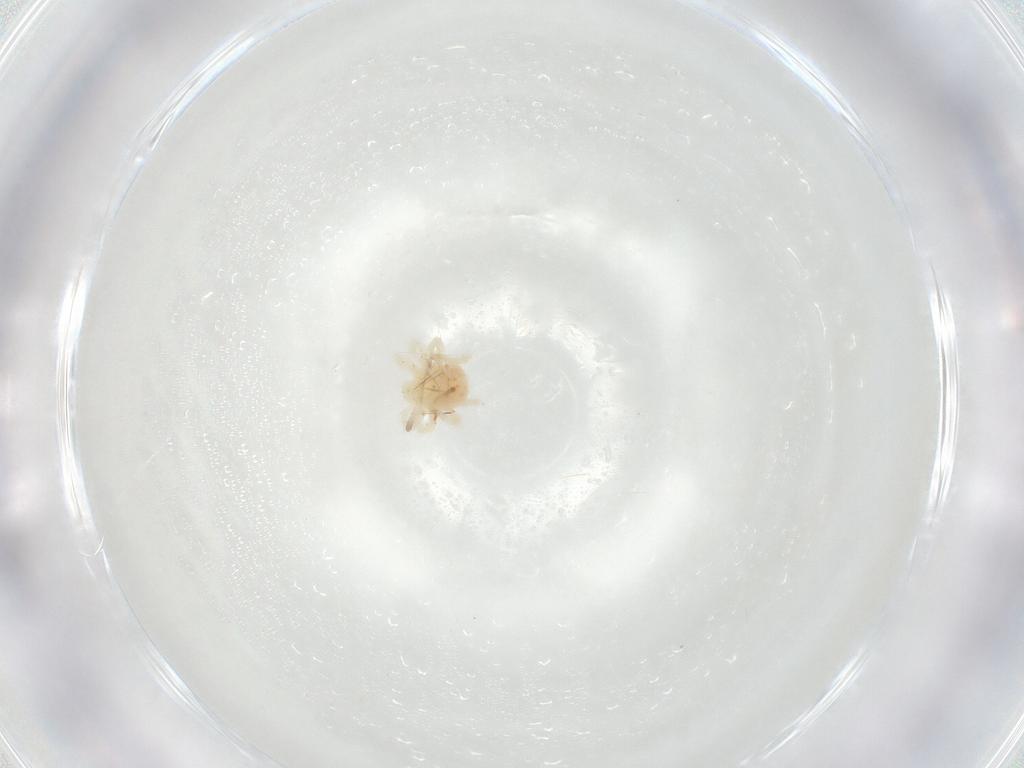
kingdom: Animalia
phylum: Arthropoda
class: Arachnida
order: Trombidiformes
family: Anystidae
